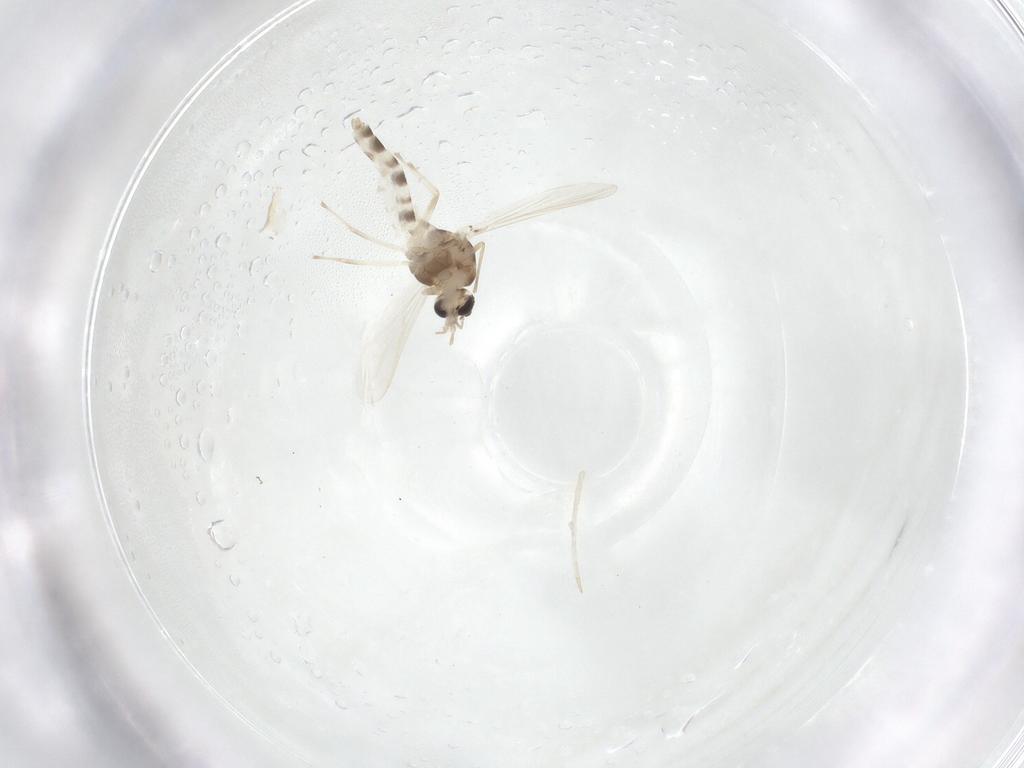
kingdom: Animalia
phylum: Arthropoda
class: Insecta
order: Diptera
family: Chironomidae
